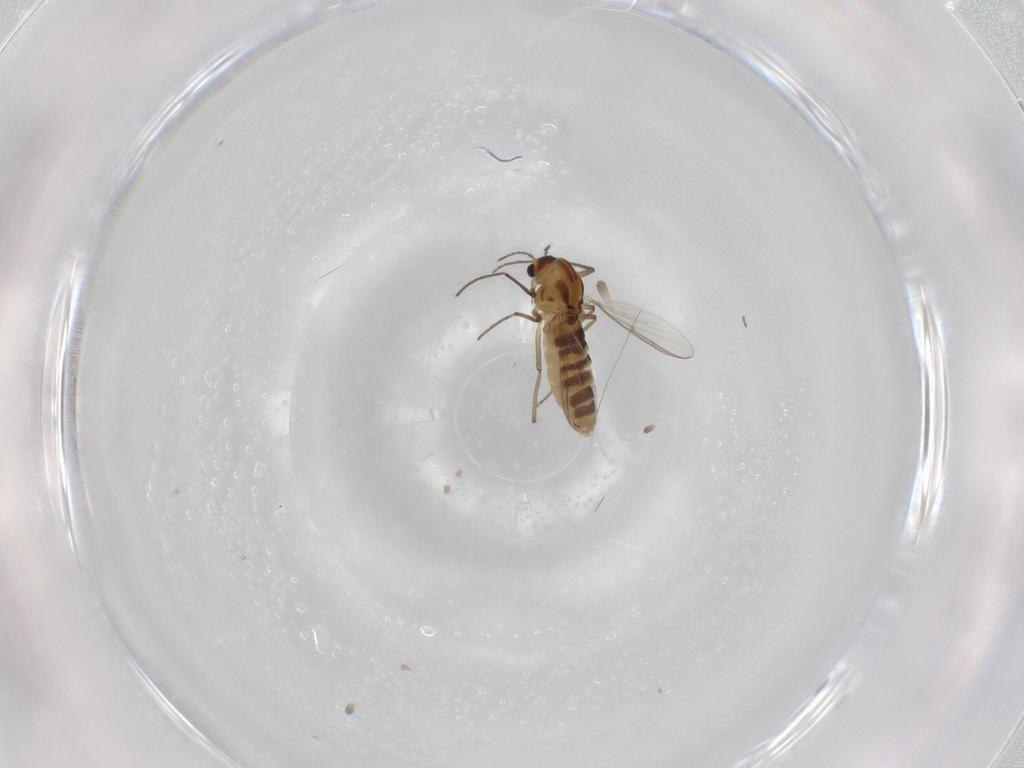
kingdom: Animalia
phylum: Arthropoda
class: Insecta
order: Diptera
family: Chironomidae
